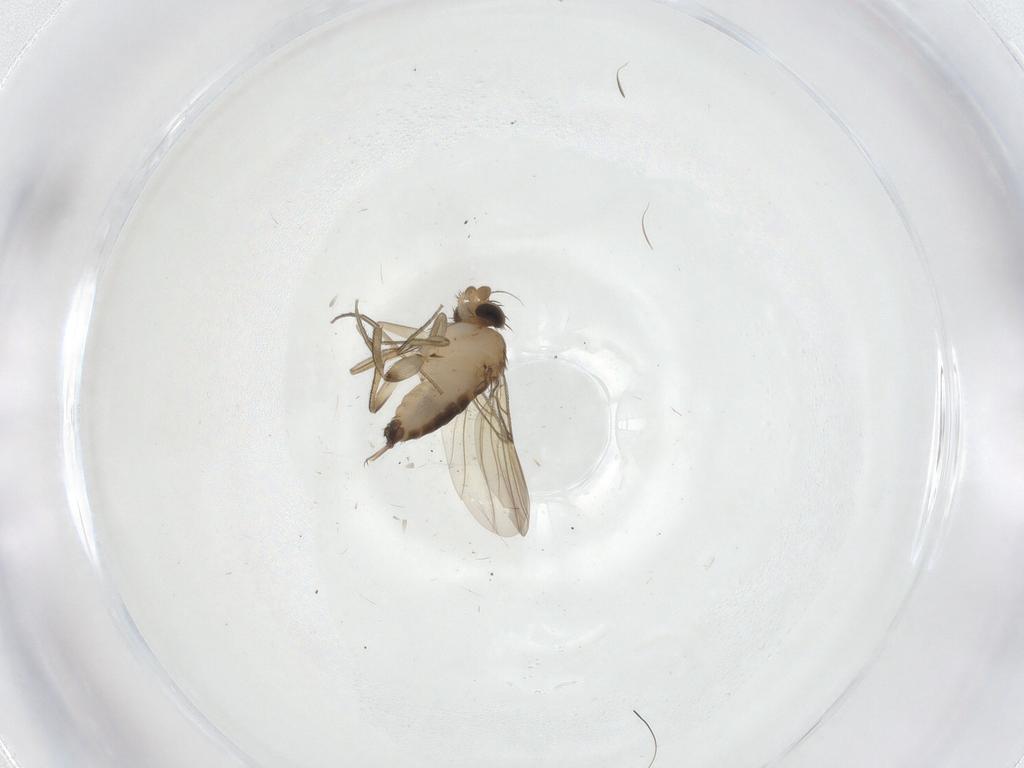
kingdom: Animalia
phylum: Arthropoda
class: Insecta
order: Diptera
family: Phoridae
